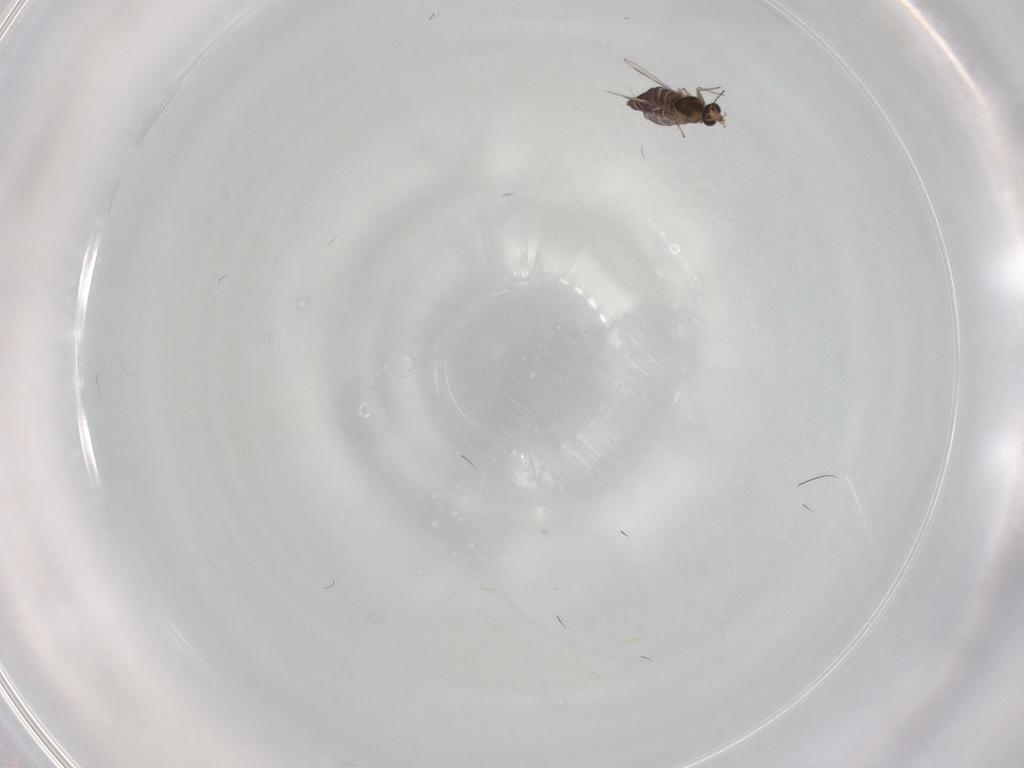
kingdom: Animalia
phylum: Arthropoda
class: Insecta
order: Diptera
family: Chironomidae
